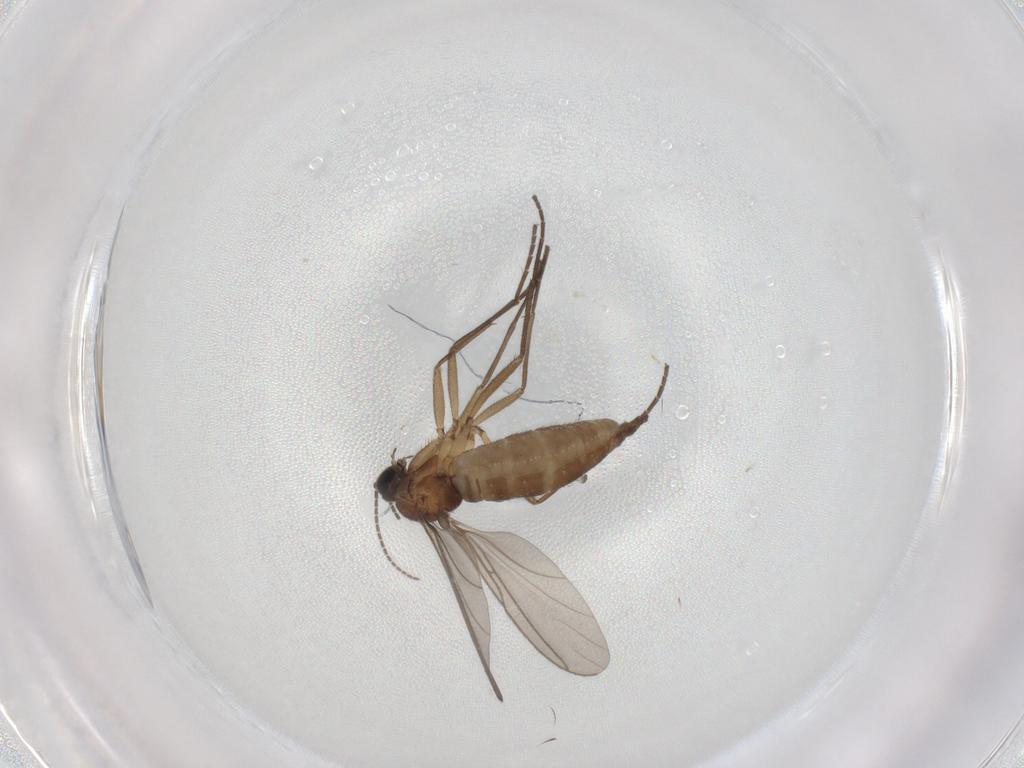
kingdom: Animalia
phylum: Arthropoda
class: Insecta
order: Diptera
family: Sciaridae
